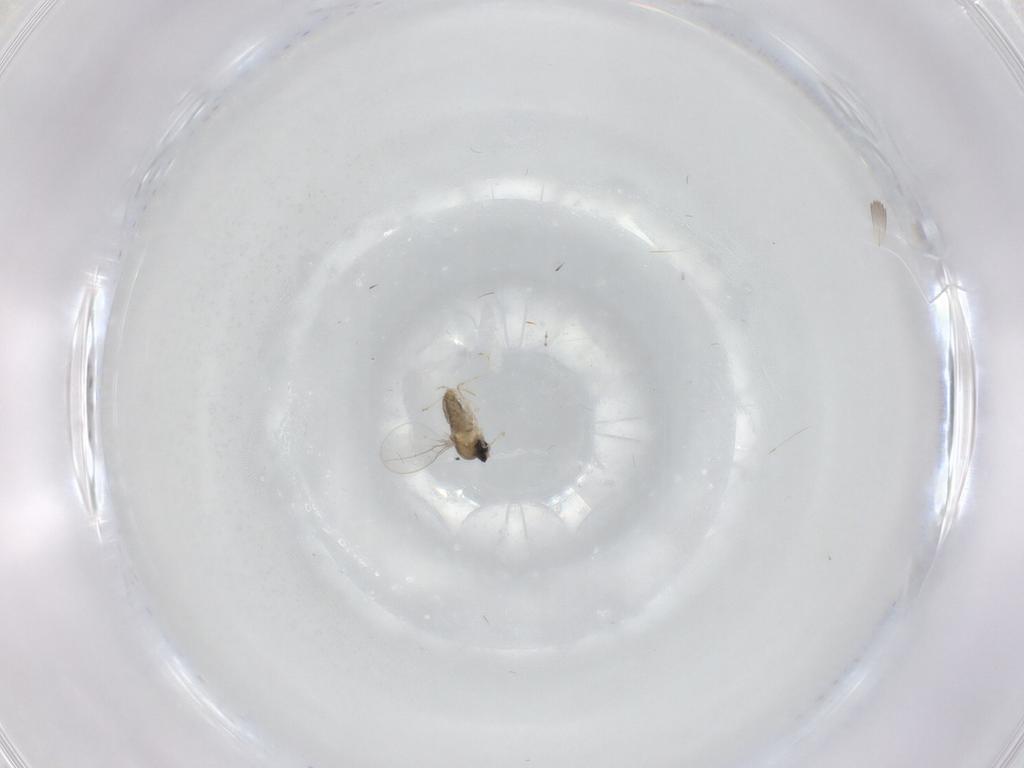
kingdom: Animalia
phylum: Arthropoda
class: Insecta
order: Diptera
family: Cecidomyiidae
